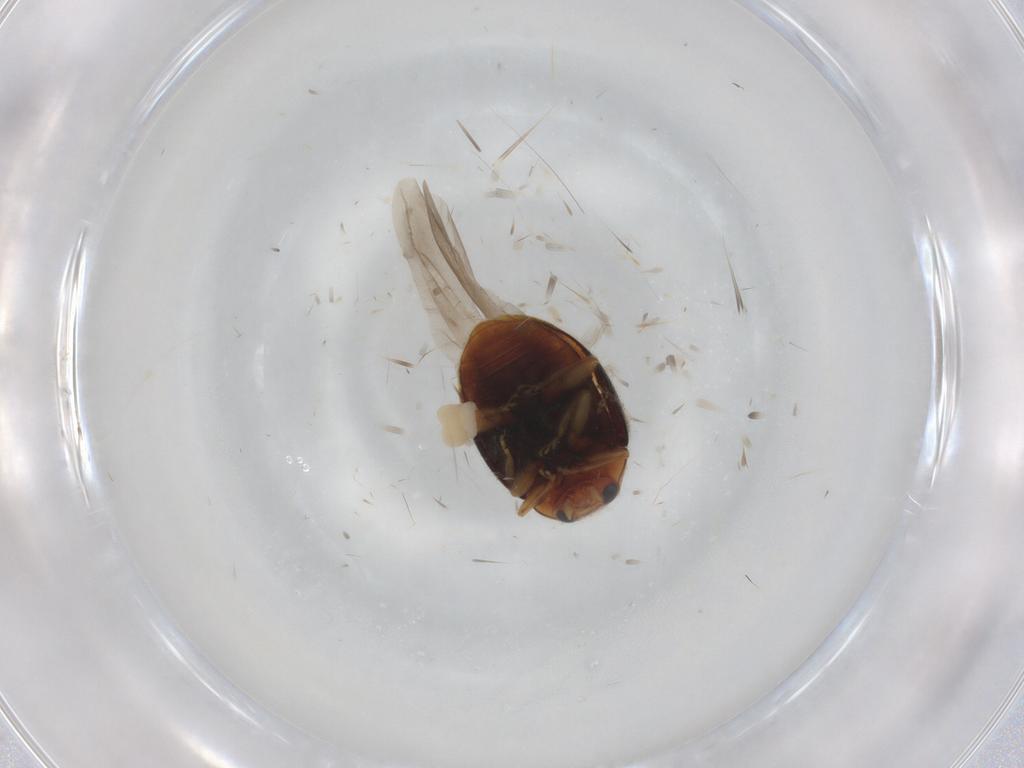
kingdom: Animalia
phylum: Arthropoda
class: Insecta
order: Coleoptera
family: Coccinellidae
